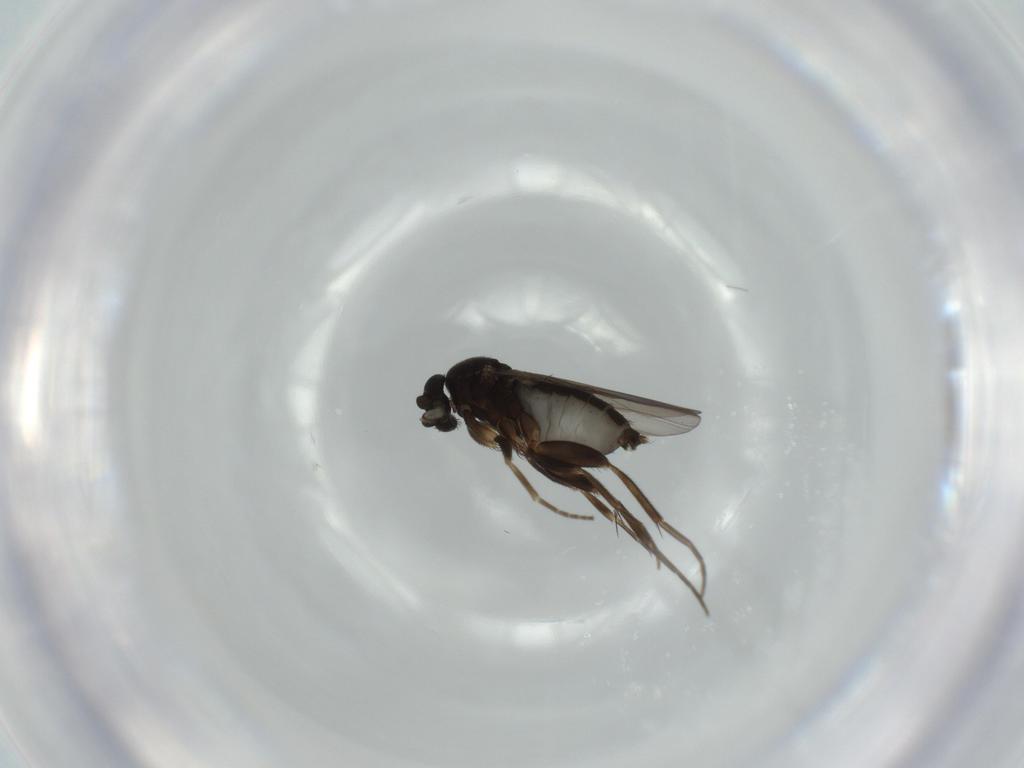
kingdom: Animalia
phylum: Arthropoda
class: Insecta
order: Diptera
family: Phoridae
